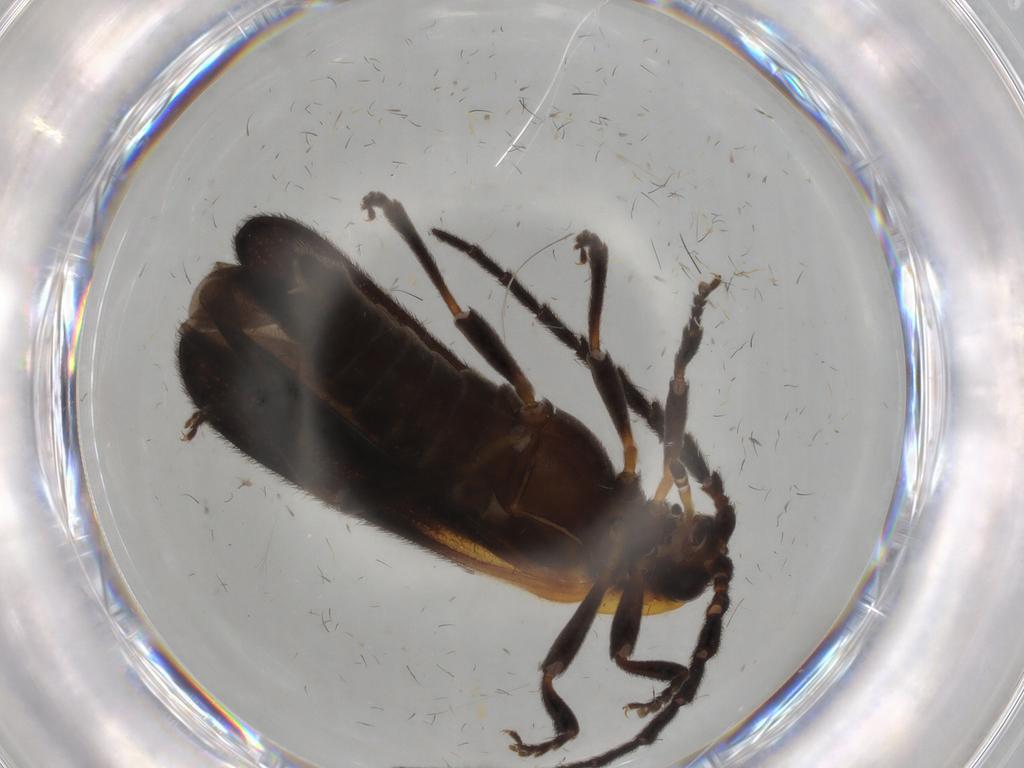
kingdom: Animalia
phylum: Arthropoda
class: Insecta
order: Coleoptera
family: Lycidae
